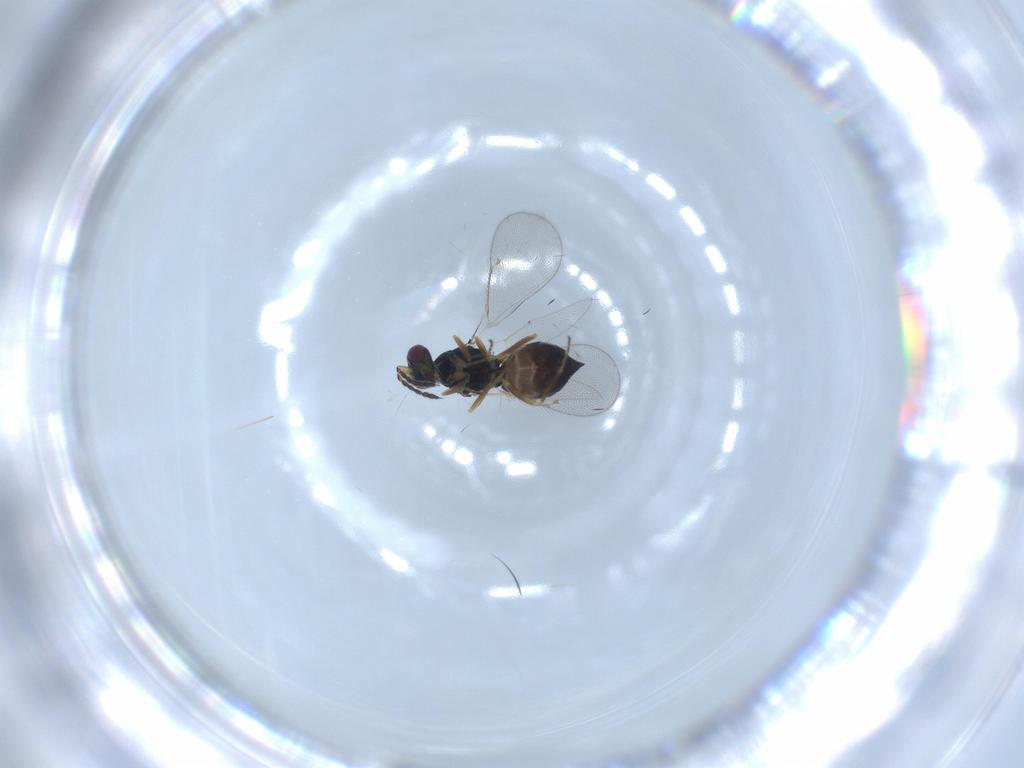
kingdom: Animalia
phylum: Arthropoda
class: Insecta
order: Hymenoptera
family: Eulophidae
